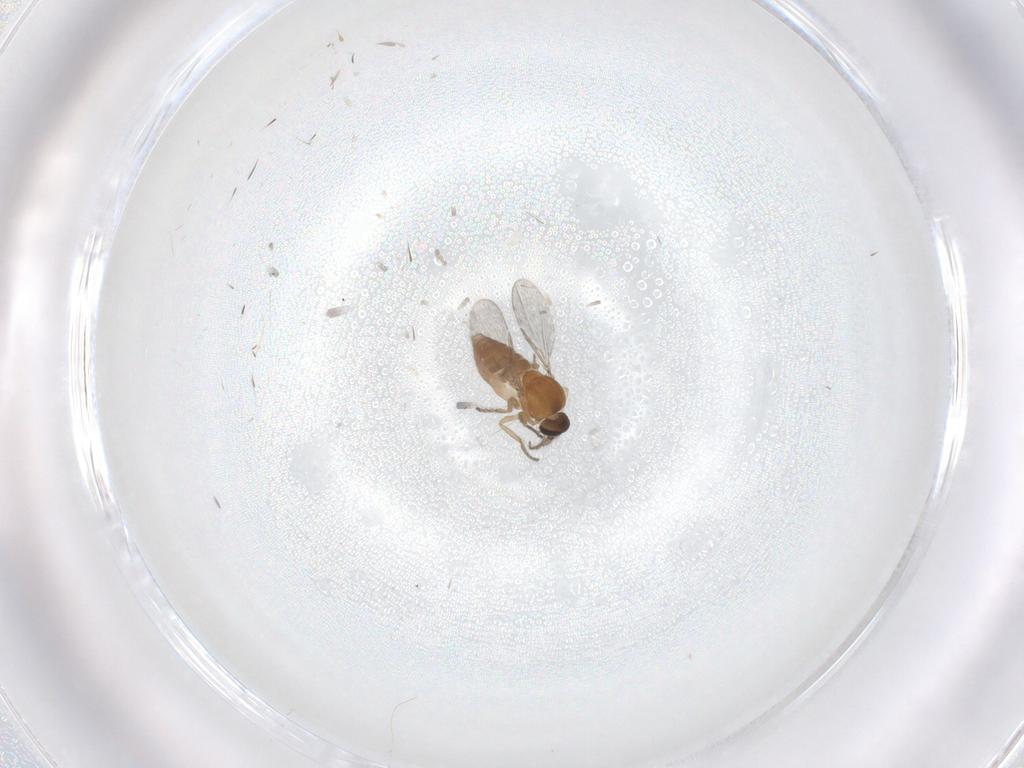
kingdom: Animalia
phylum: Arthropoda
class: Insecta
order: Diptera
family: Ceratopogonidae
